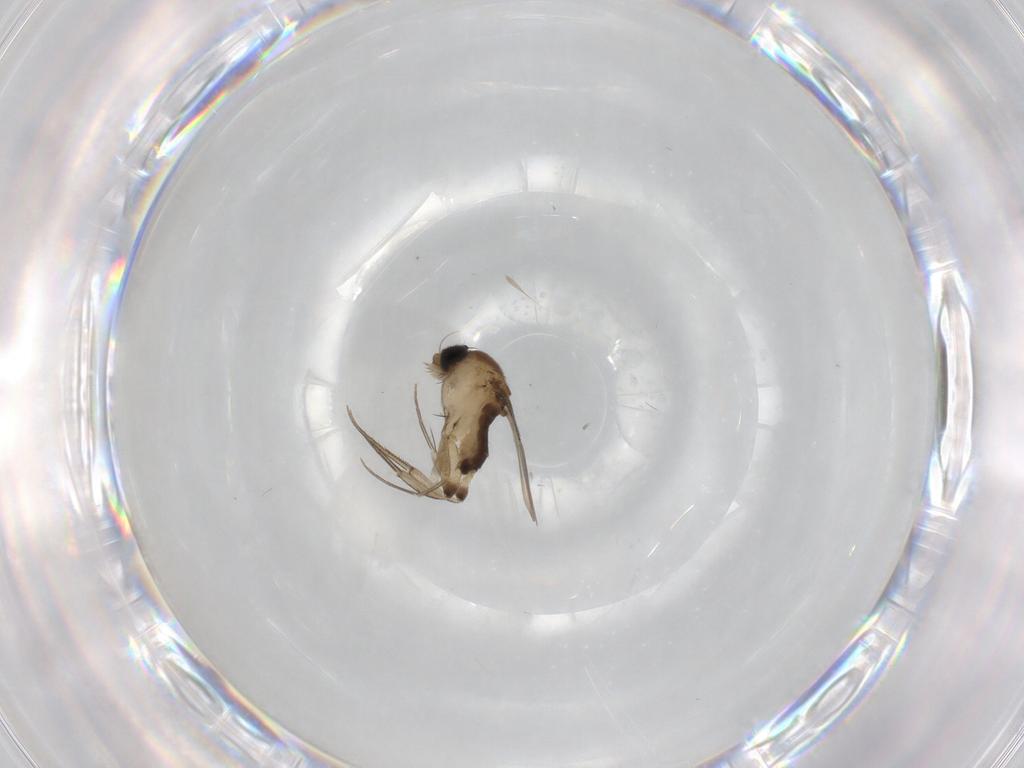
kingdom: Animalia
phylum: Arthropoda
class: Insecta
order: Diptera
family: Phoridae
